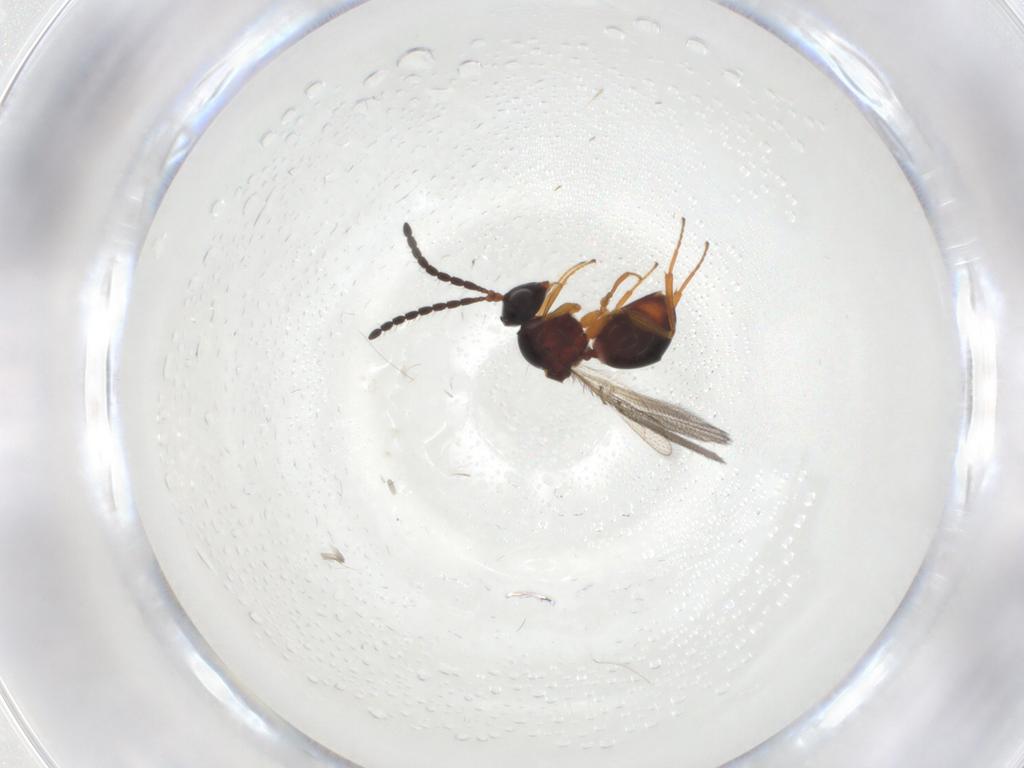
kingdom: Animalia
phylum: Arthropoda
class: Insecta
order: Hymenoptera
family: Figitidae
